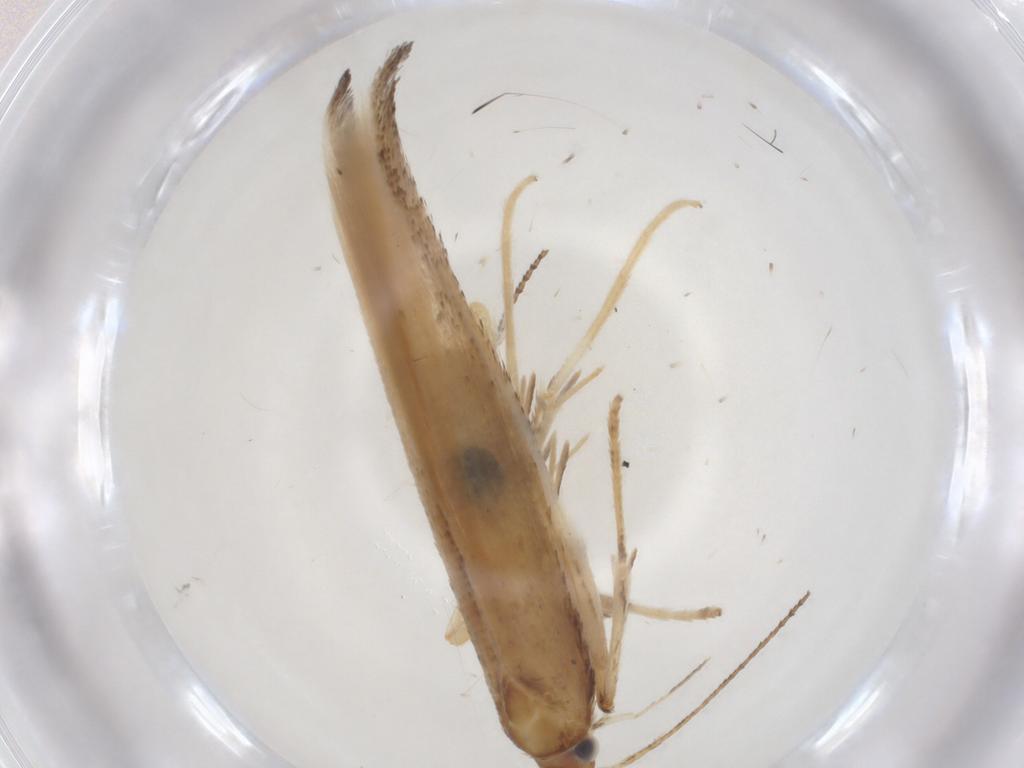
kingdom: Animalia
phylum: Arthropoda
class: Insecta
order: Lepidoptera
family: Cosmopterigidae
